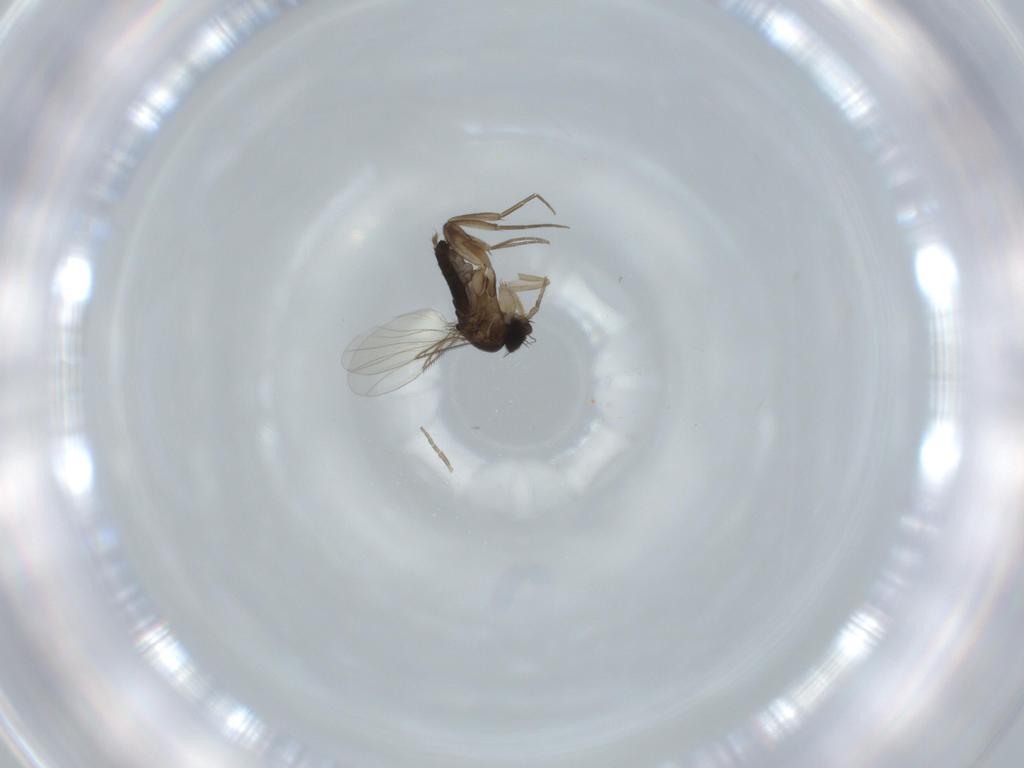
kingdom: Animalia
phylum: Arthropoda
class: Insecta
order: Diptera
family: Phoridae
